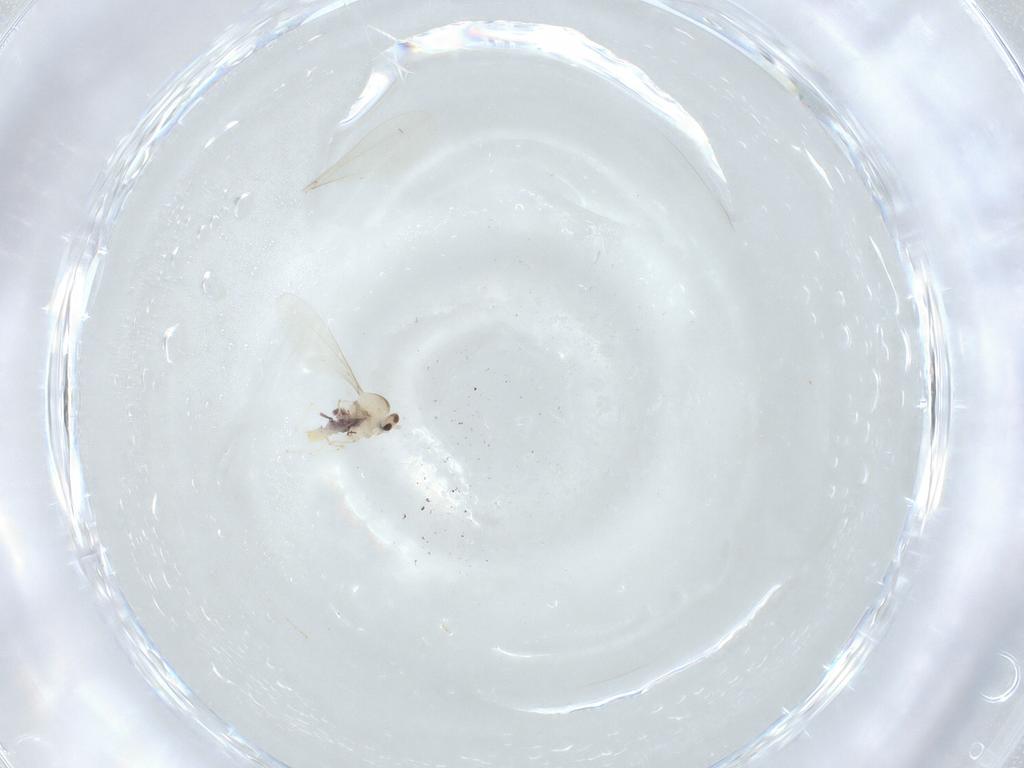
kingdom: Animalia
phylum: Arthropoda
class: Insecta
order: Diptera
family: Cecidomyiidae
